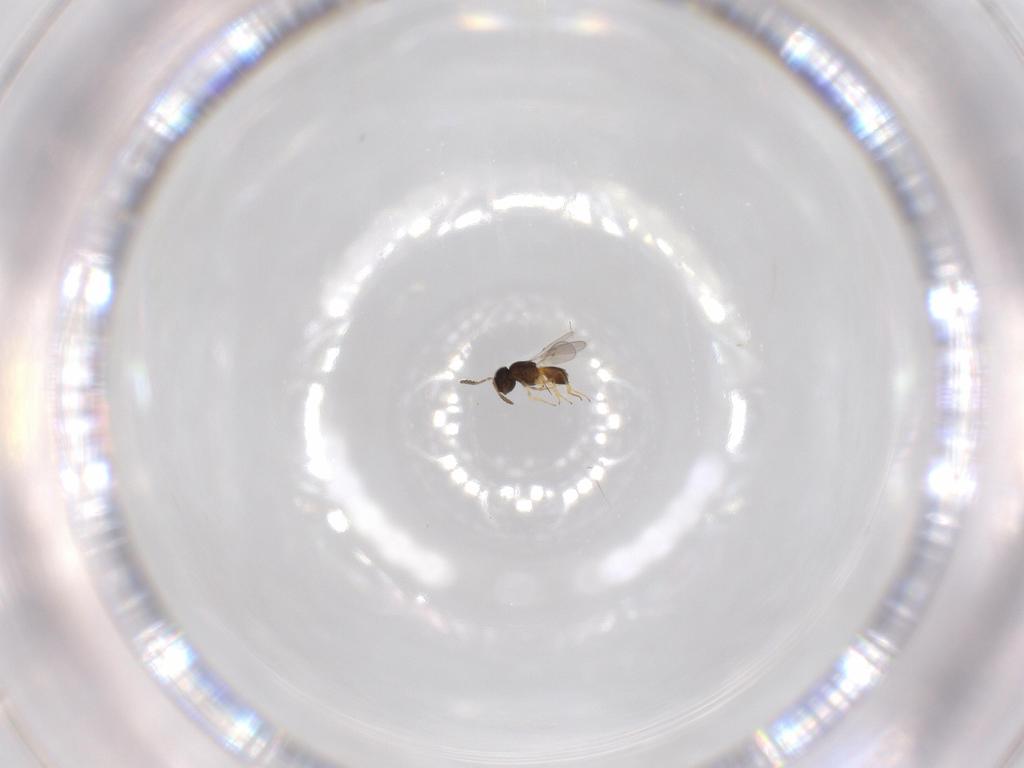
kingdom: Animalia
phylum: Arthropoda
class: Insecta
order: Hymenoptera
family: Scelionidae
